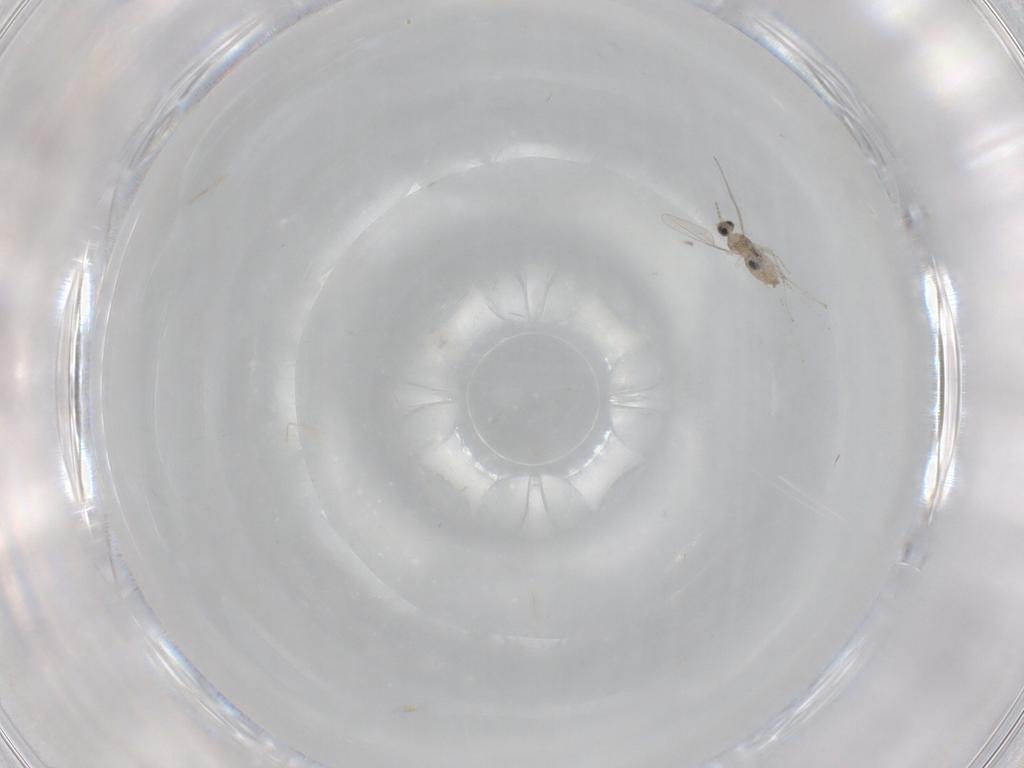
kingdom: Animalia
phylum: Arthropoda
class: Insecta
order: Diptera
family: Cecidomyiidae
